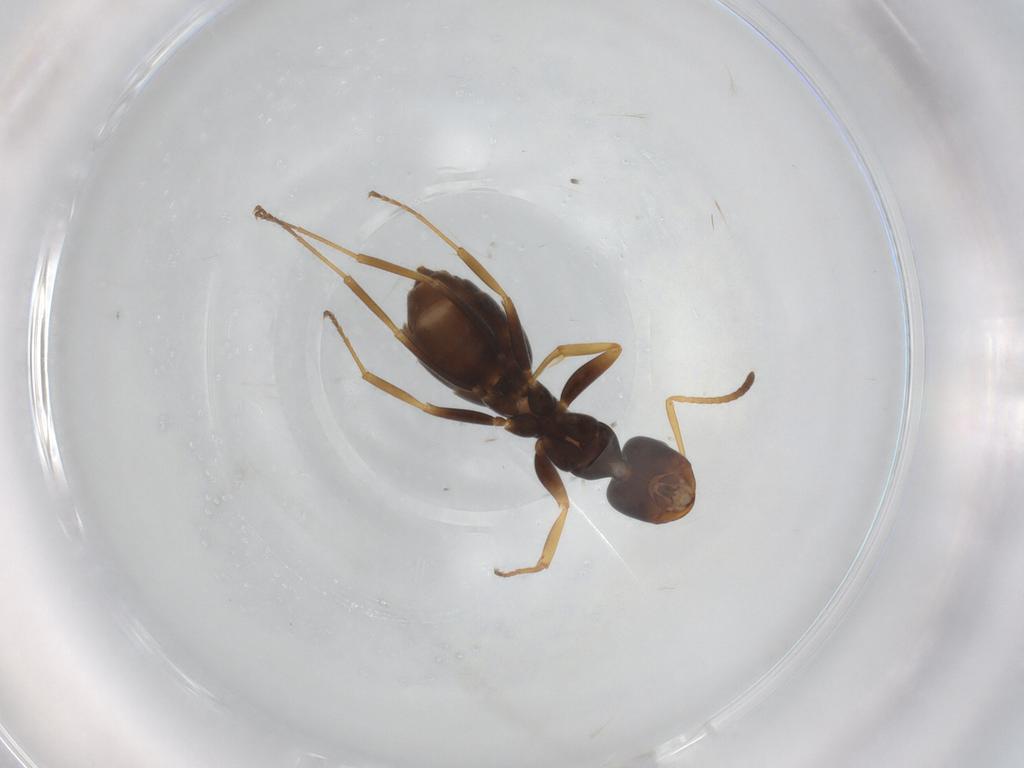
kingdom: Animalia
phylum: Arthropoda
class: Insecta
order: Hymenoptera
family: Formicidae
